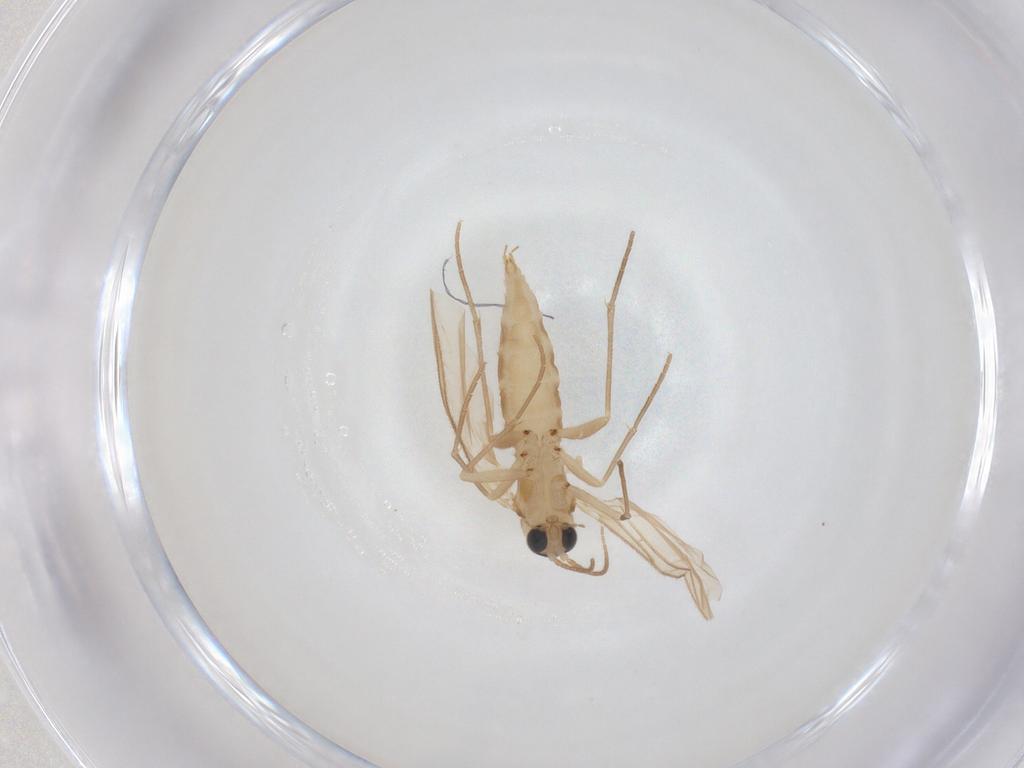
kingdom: Animalia
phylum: Arthropoda
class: Insecta
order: Diptera
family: Sciaridae
